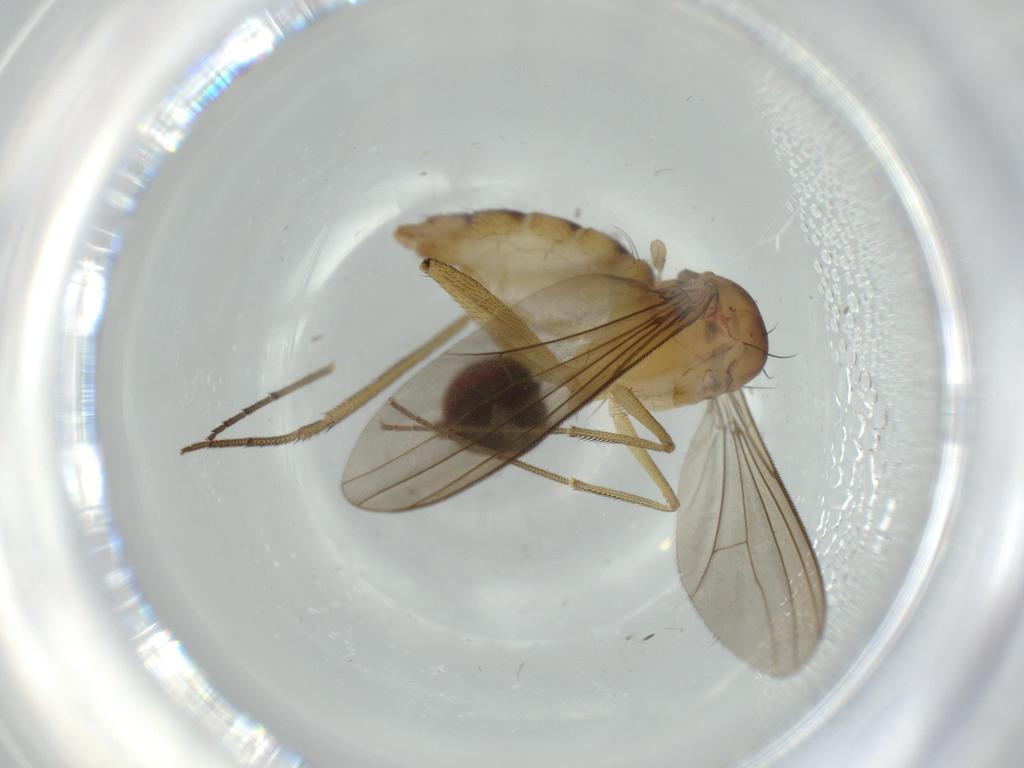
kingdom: Animalia
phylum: Arthropoda
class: Insecta
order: Diptera
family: Dolichopodidae
